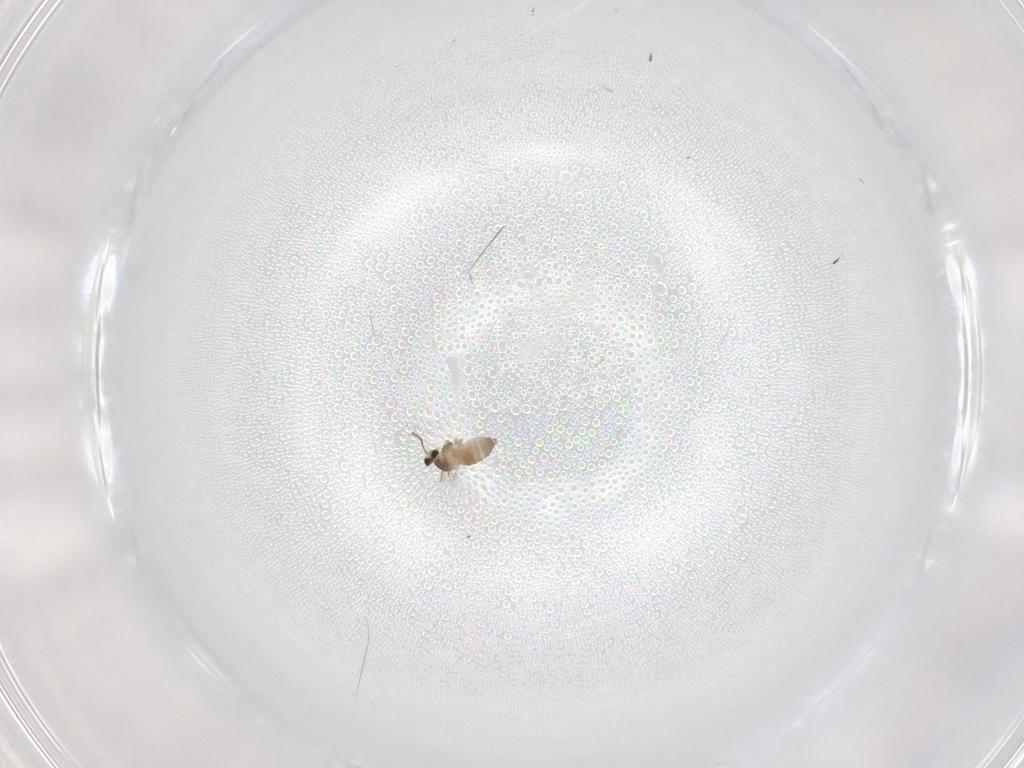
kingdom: Animalia
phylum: Arthropoda
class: Insecta
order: Diptera
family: Cecidomyiidae
